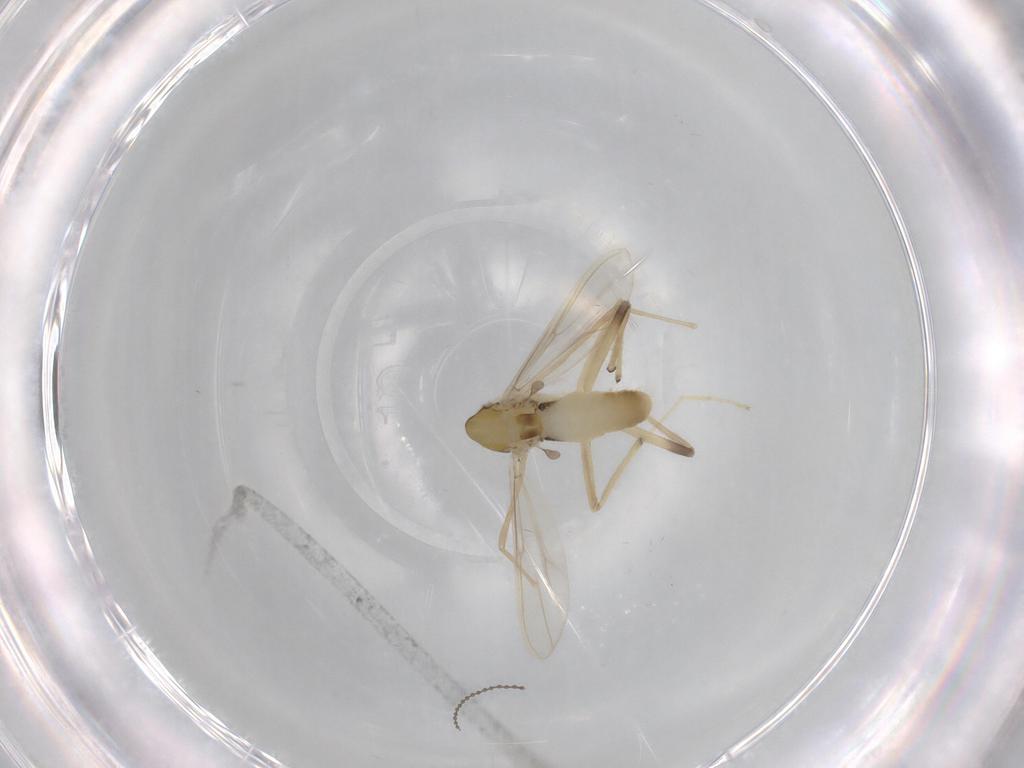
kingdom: Animalia
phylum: Arthropoda
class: Insecta
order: Diptera
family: Chironomidae
